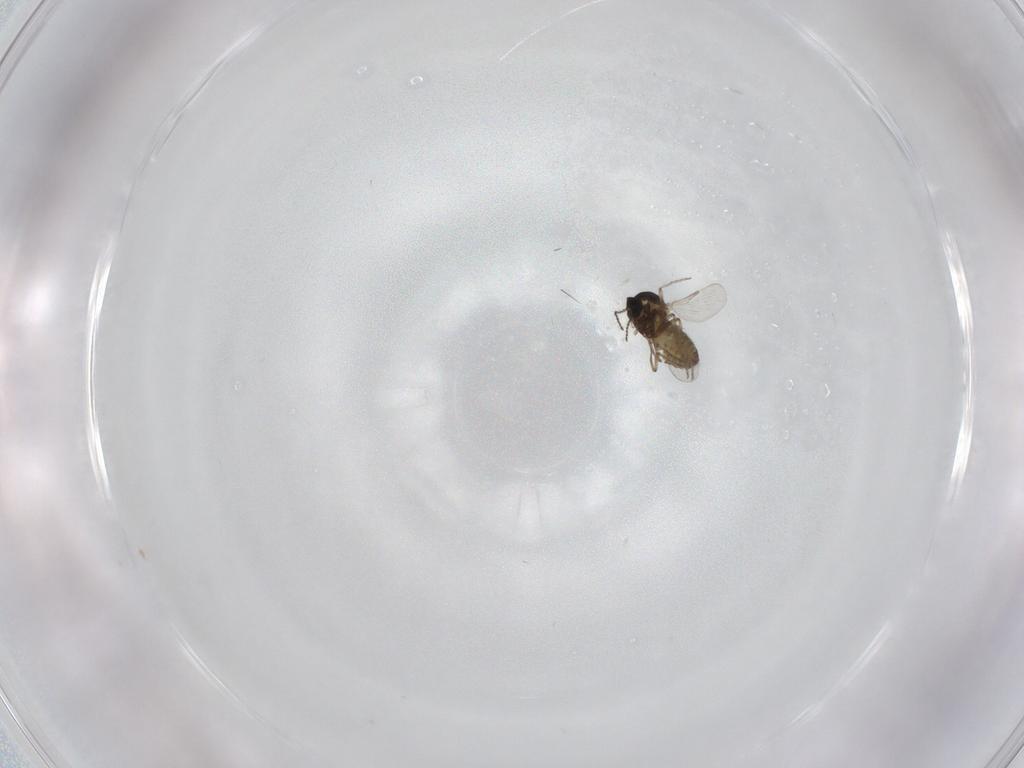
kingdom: Animalia
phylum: Arthropoda
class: Insecta
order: Diptera
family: Ceratopogonidae
